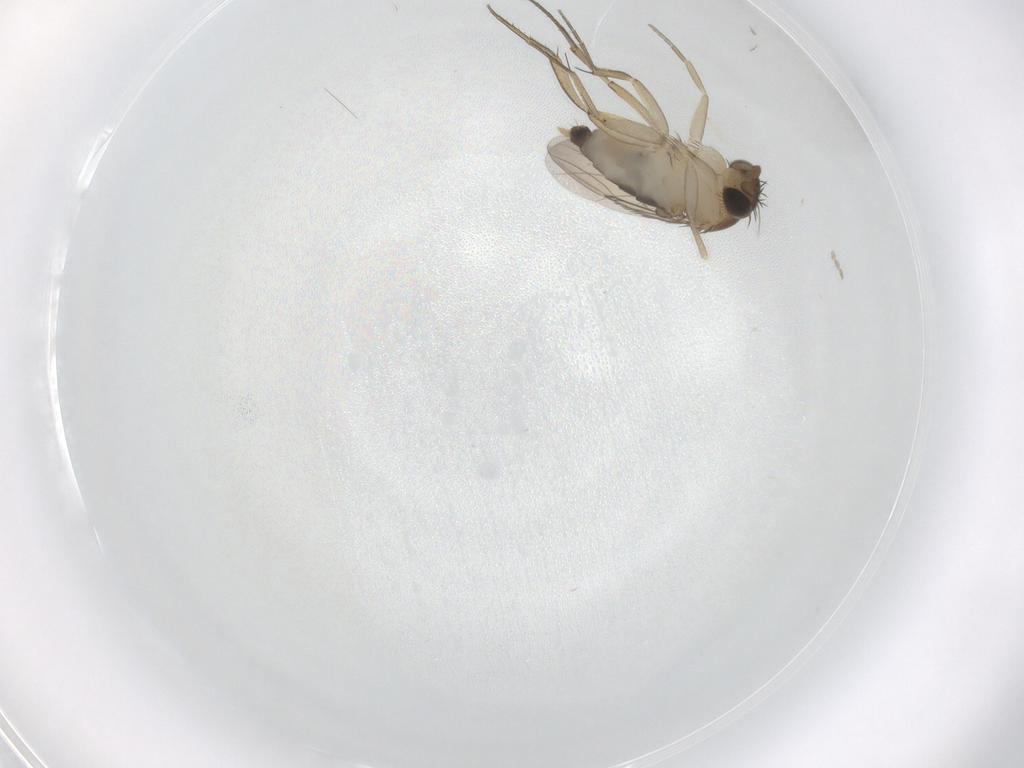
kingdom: Animalia
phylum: Arthropoda
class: Insecta
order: Diptera
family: Phoridae
